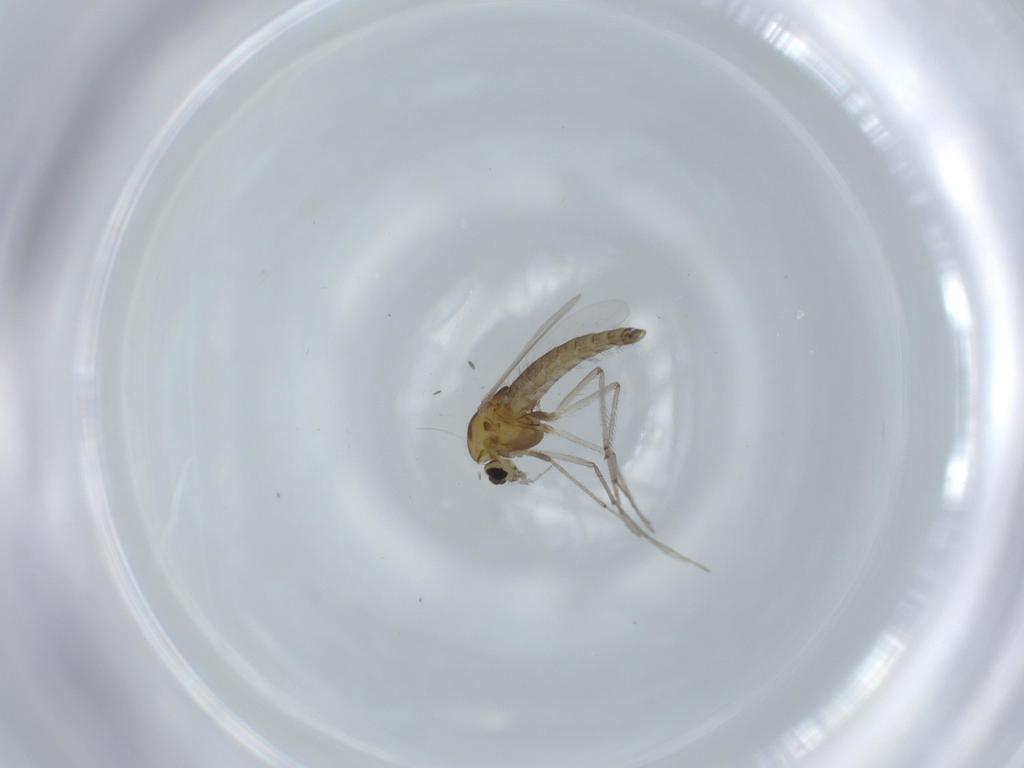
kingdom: Animalia
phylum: Arthropoda
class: Insecta
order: Diptera
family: Chironomidae
